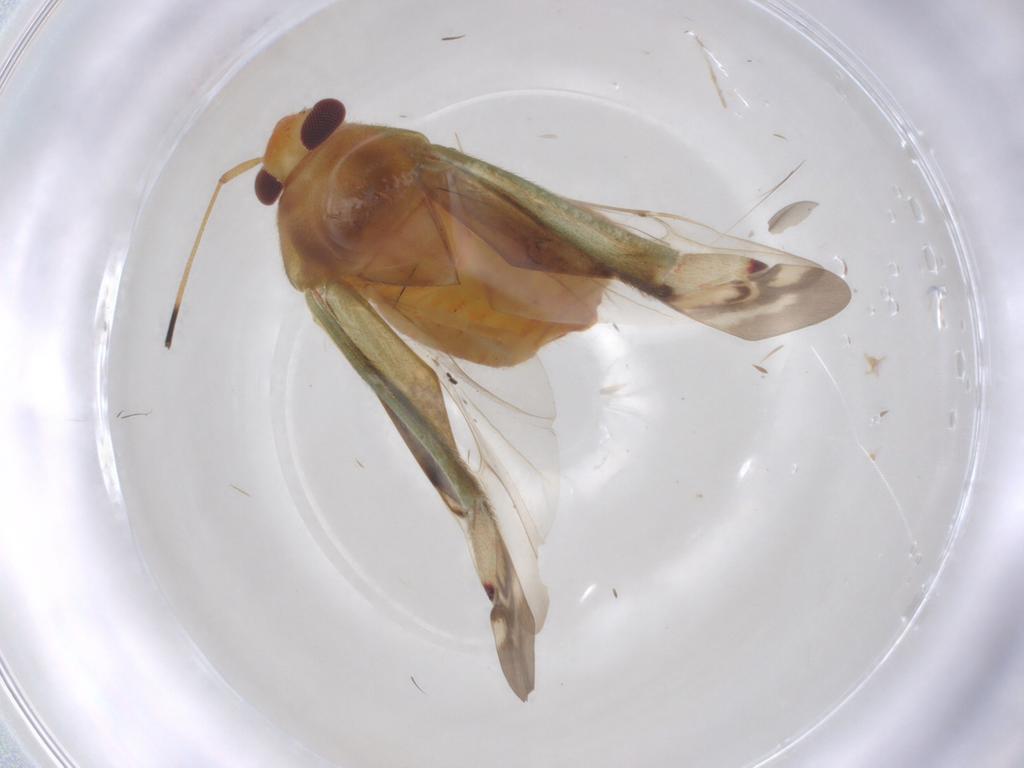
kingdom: Animalia
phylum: Arthropoda
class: Insecta
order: Hemiptera
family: Miridae
